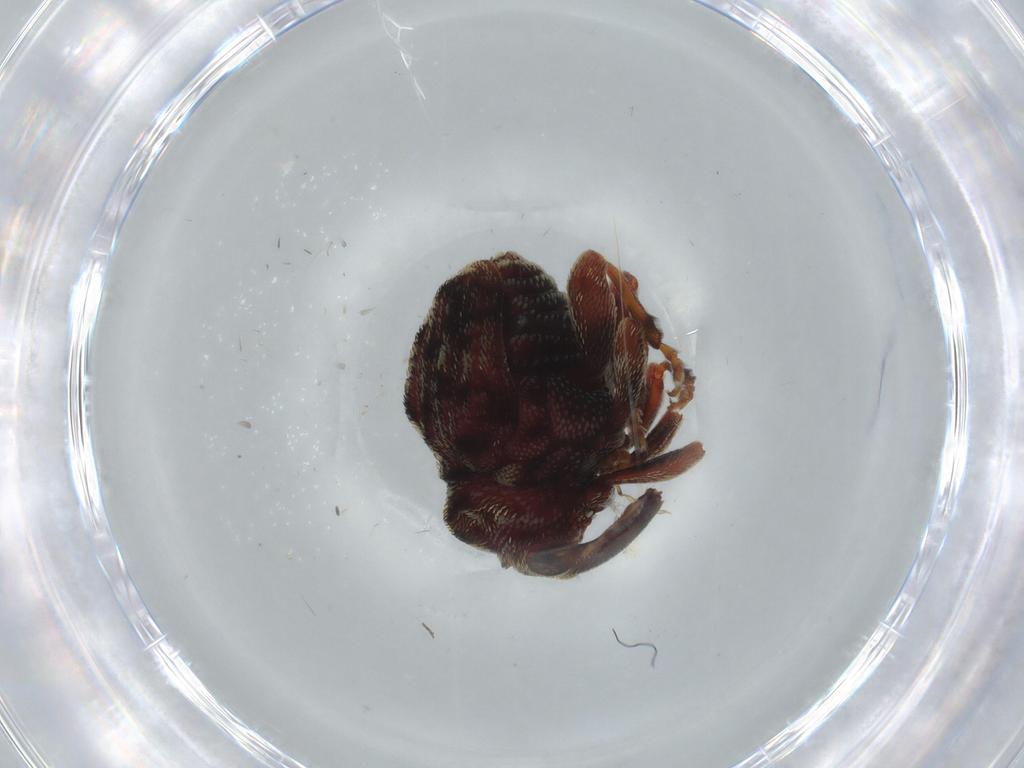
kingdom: Animalia
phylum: Arthropoda
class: Insecta
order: Coleoptera
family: Curculionidae
